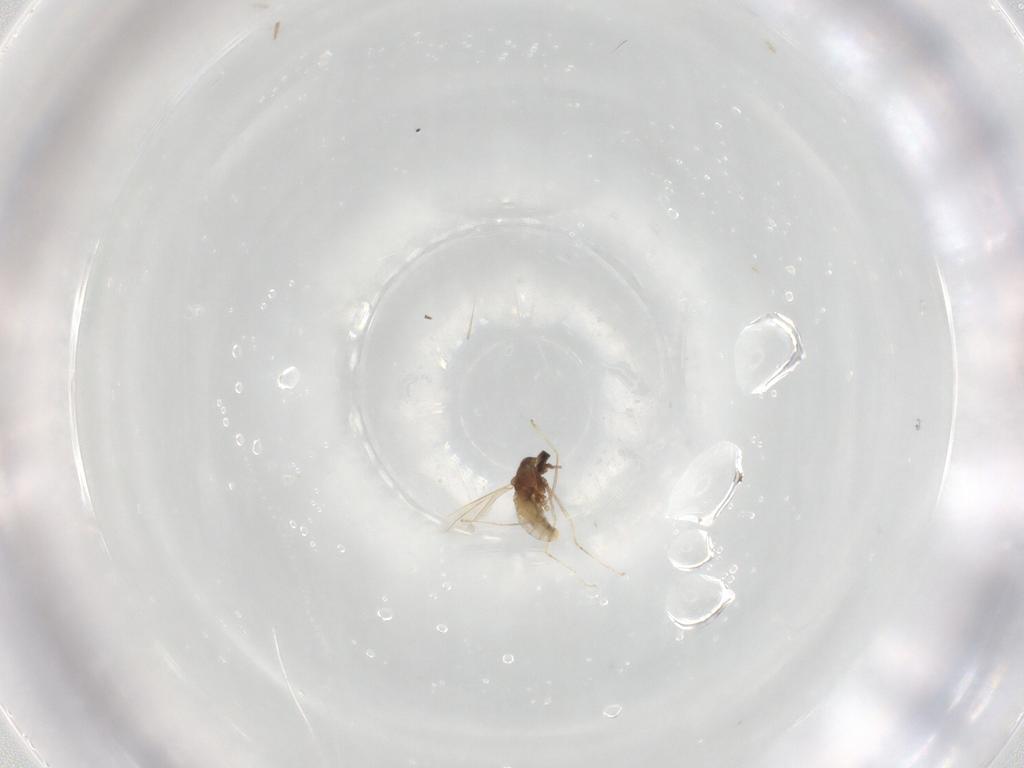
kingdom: Animalia
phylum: Arthropoda
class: Insecta
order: Diptera
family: Cecidomyiidae
